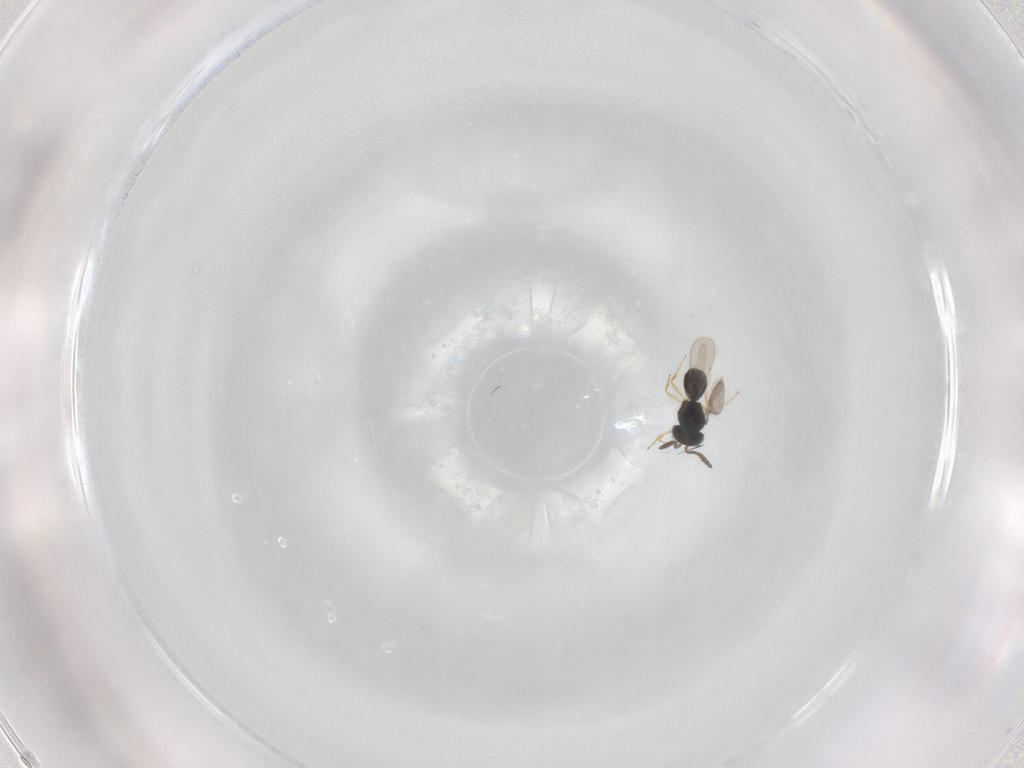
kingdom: Animalia
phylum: Arthropoda
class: Insecta
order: Hymenoptera
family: Scelionidae
